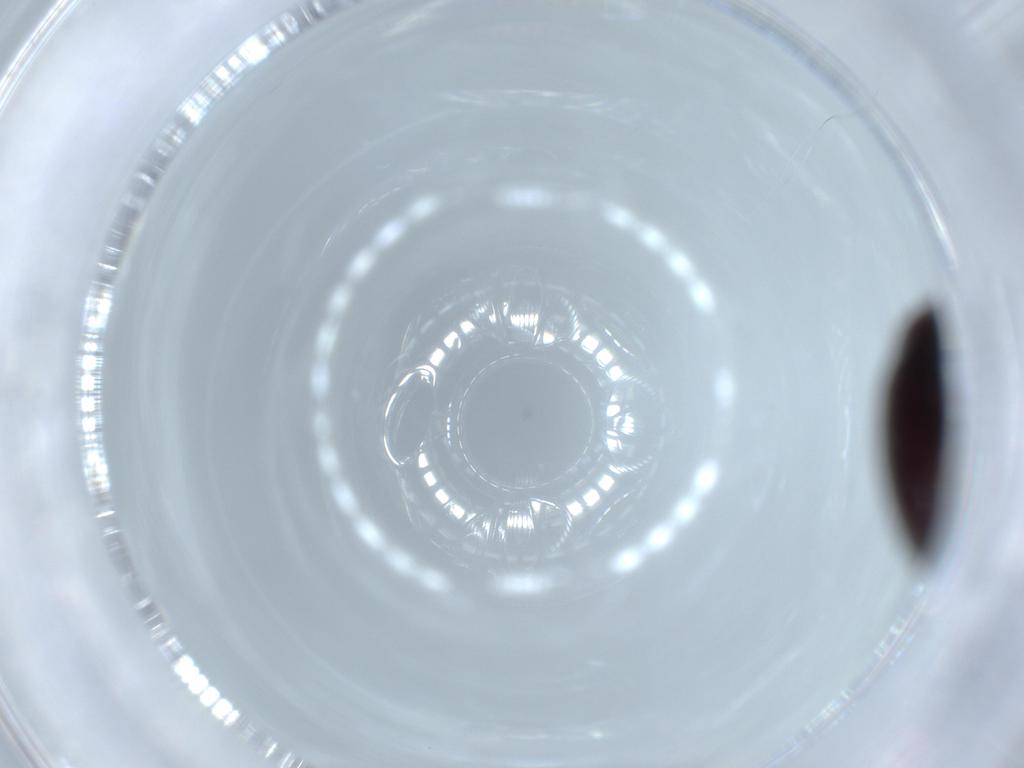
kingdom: Animalia
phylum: Arthropoda
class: Insecta
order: Coleoptera
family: Throscidae
